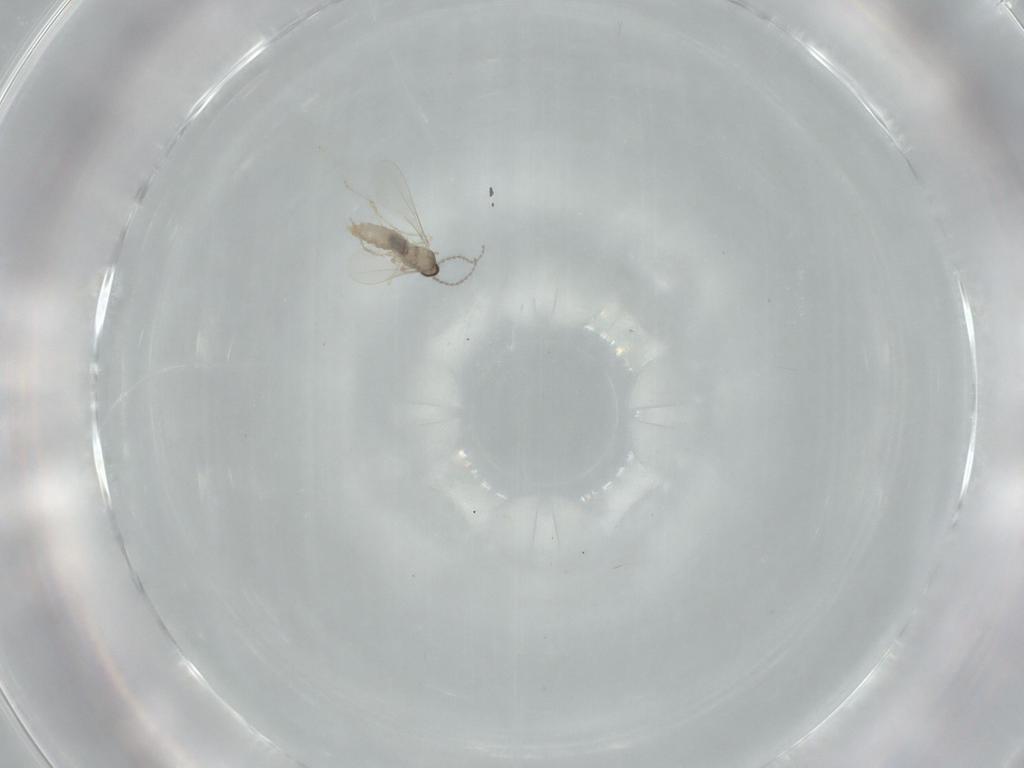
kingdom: Animalia
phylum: Arthropoda
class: Insecta
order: Diptera
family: Cecidomyiidae
